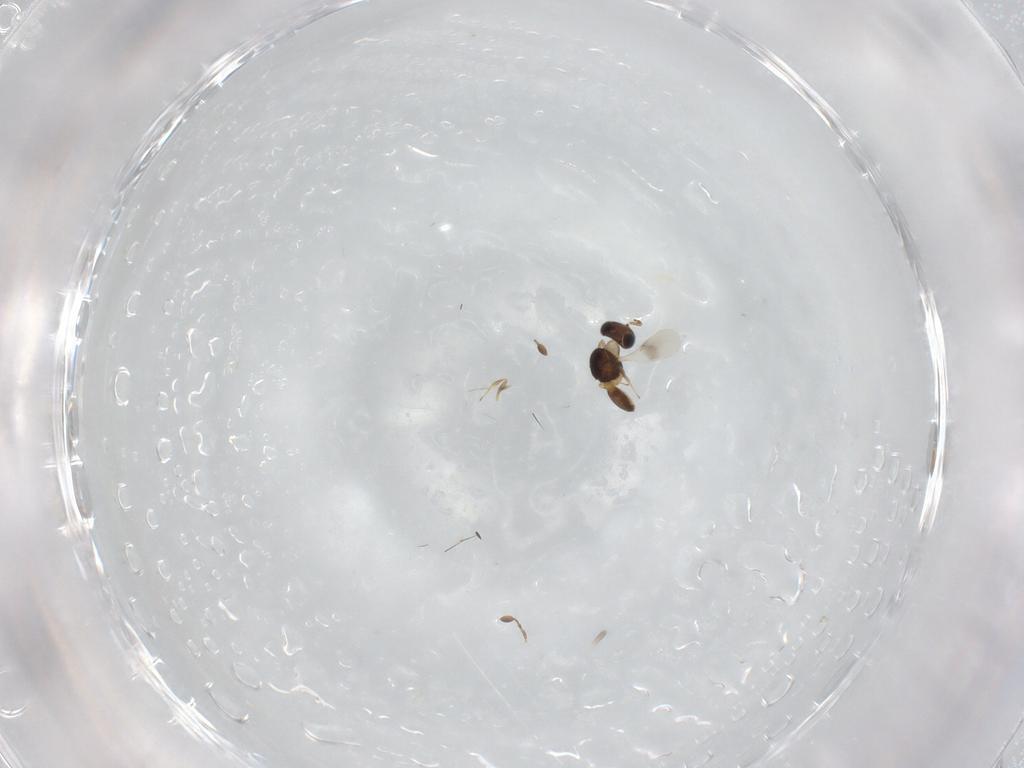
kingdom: Animalia
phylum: Arthropoda
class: Insecta
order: Hymenoptera
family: Scelionidae
